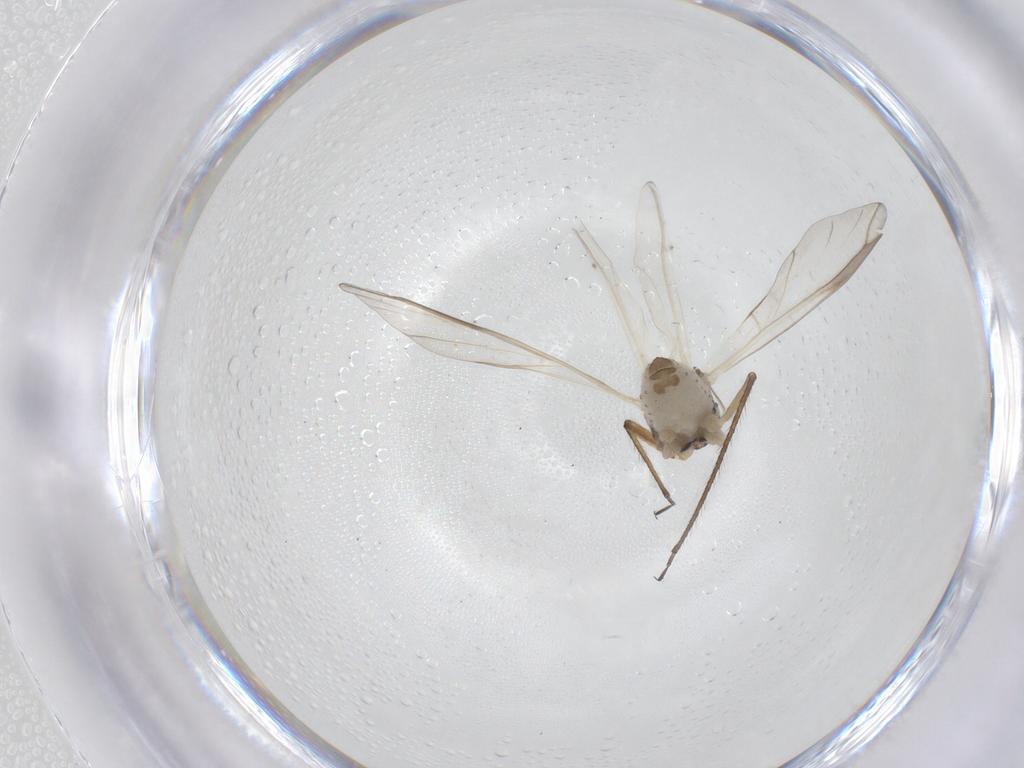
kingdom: Animalia
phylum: Arthropoda
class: Insecta
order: Hemiptera
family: Aphididae
